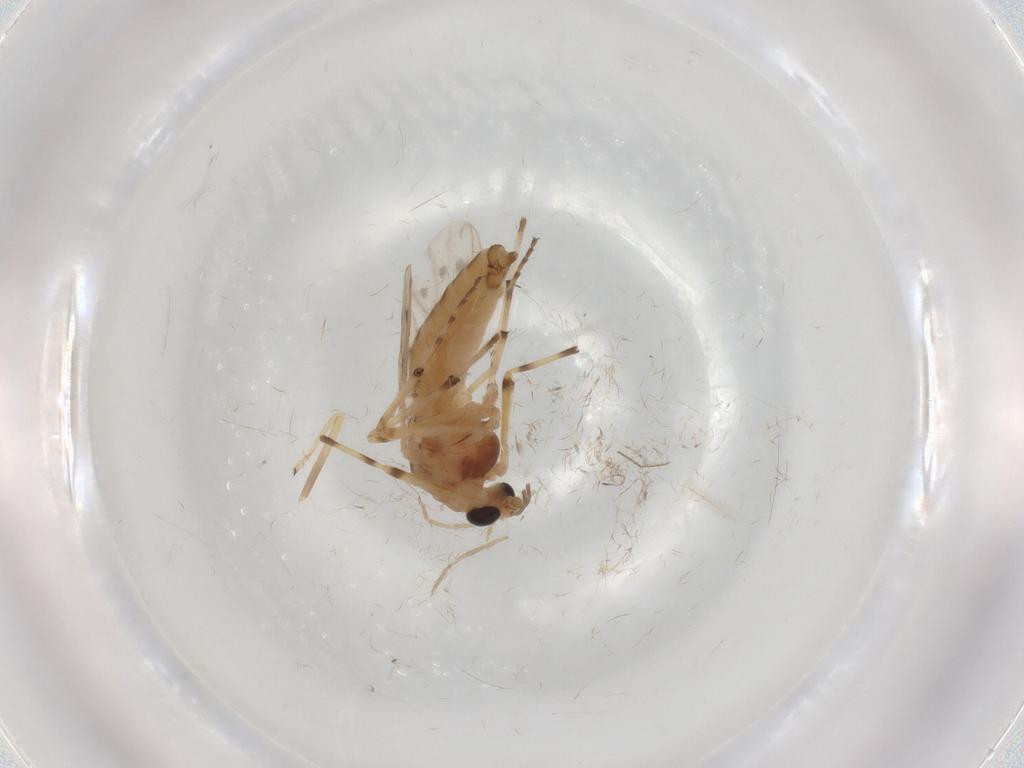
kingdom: Animalia
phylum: Arthropoda
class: Insecta
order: Diptera
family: Chironomidae
